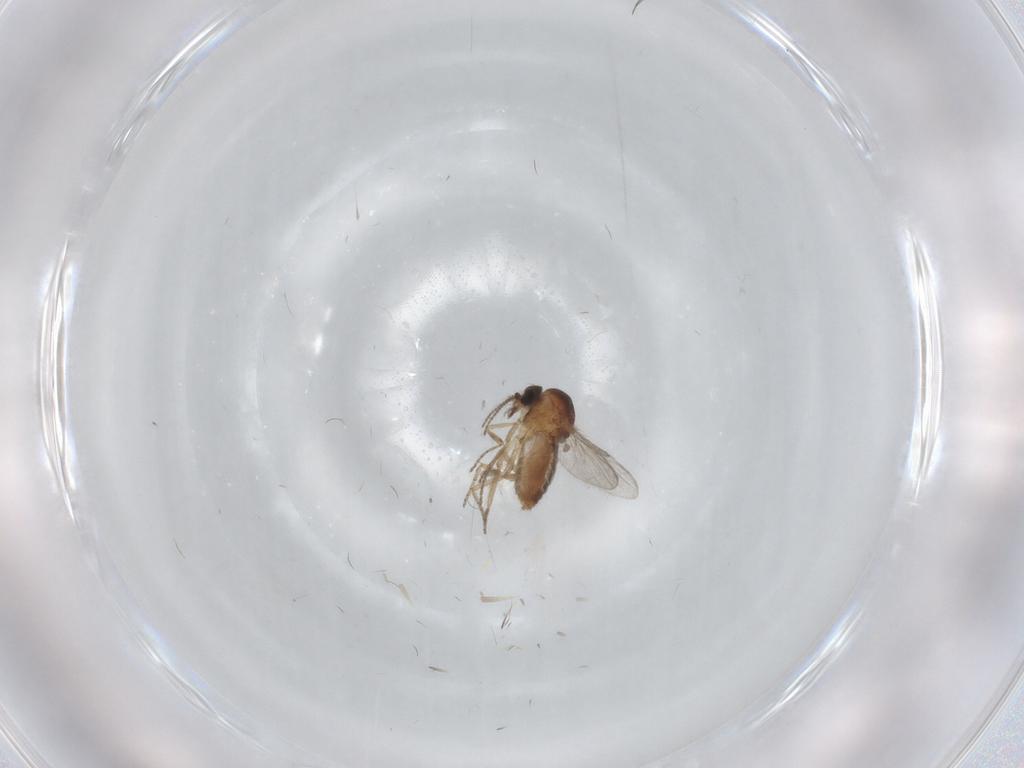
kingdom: Animalia
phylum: Arthropoda
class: Insecta
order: Diptera
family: Ceratopogonidae
